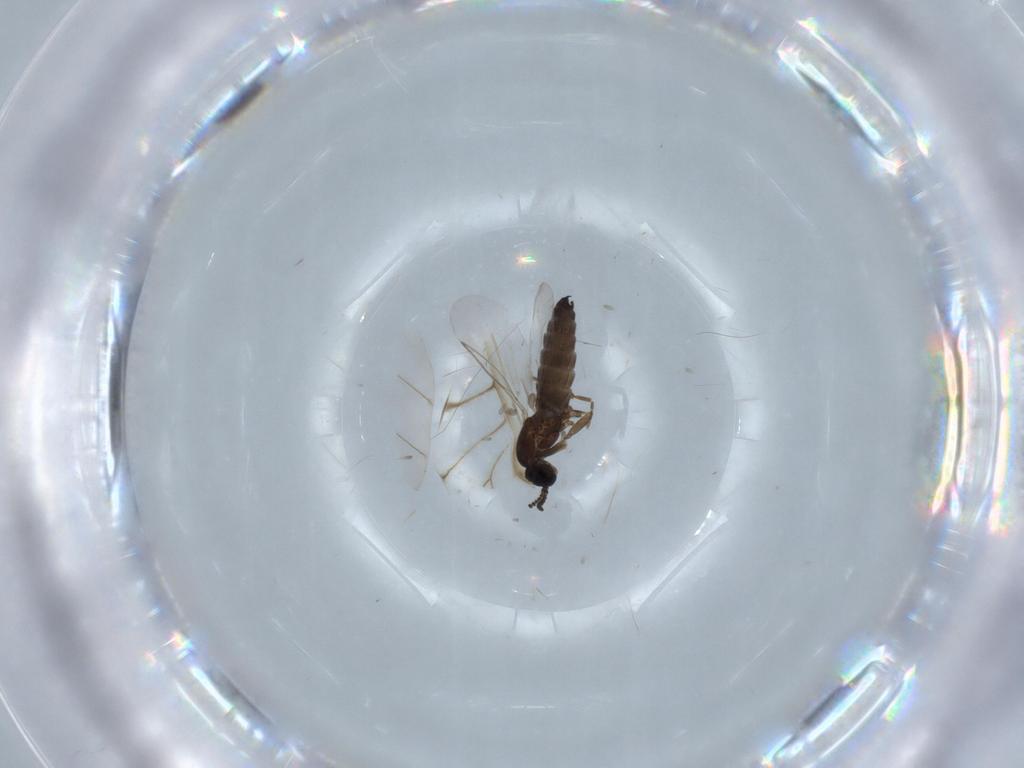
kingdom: Animalia
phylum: Arthropoda
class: Insecta
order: Diptera
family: Scatopsidae
